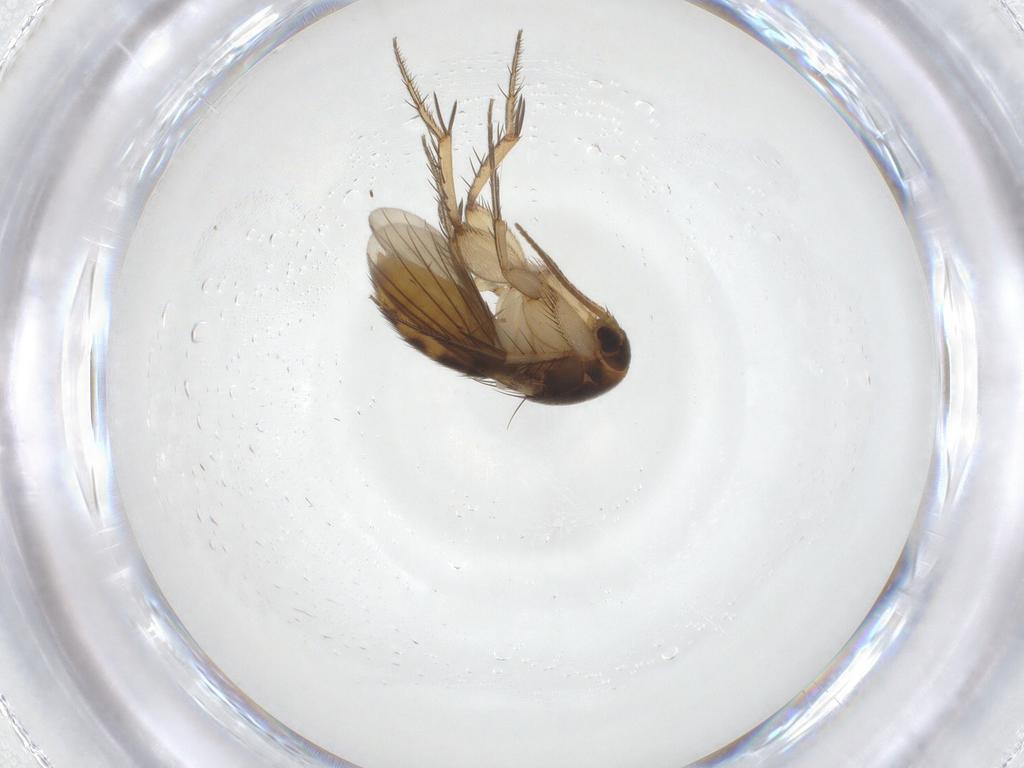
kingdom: Animalia
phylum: Arthropoda
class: Insecta
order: Diptera
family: Mycetophilidae
